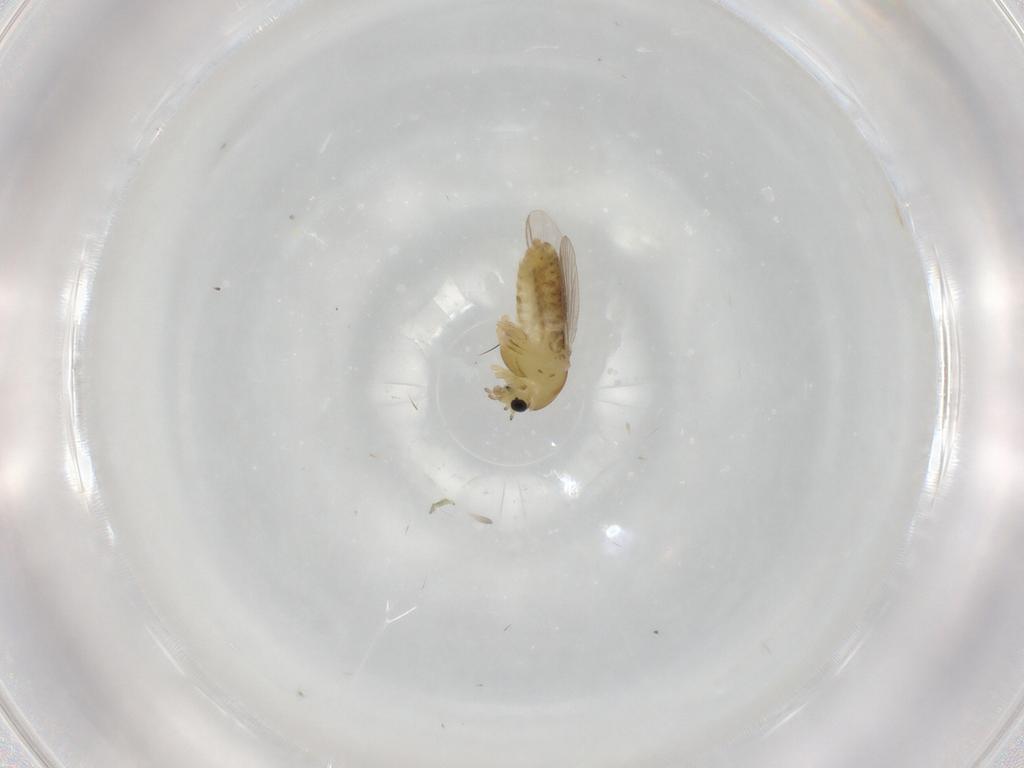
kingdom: Animalia
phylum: Arthropoda
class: Insecta
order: Diptera
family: Chironomidae
